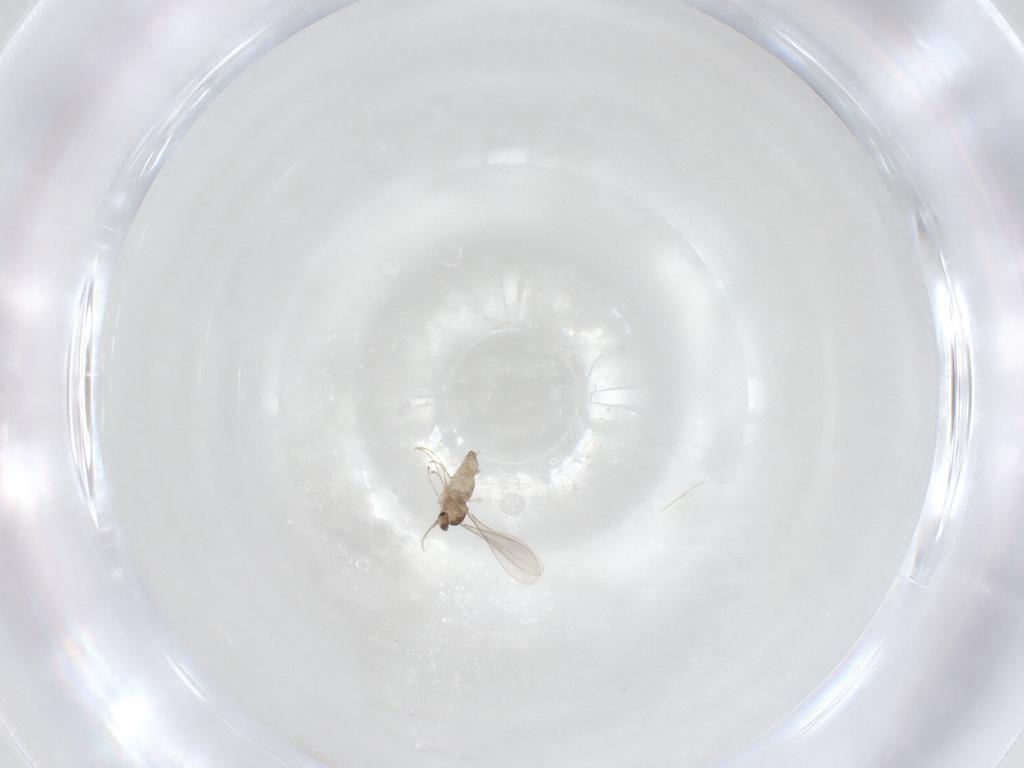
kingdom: Animalia
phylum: Arthropoda
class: Insecta
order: Diptera
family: Cecidomyiidae
